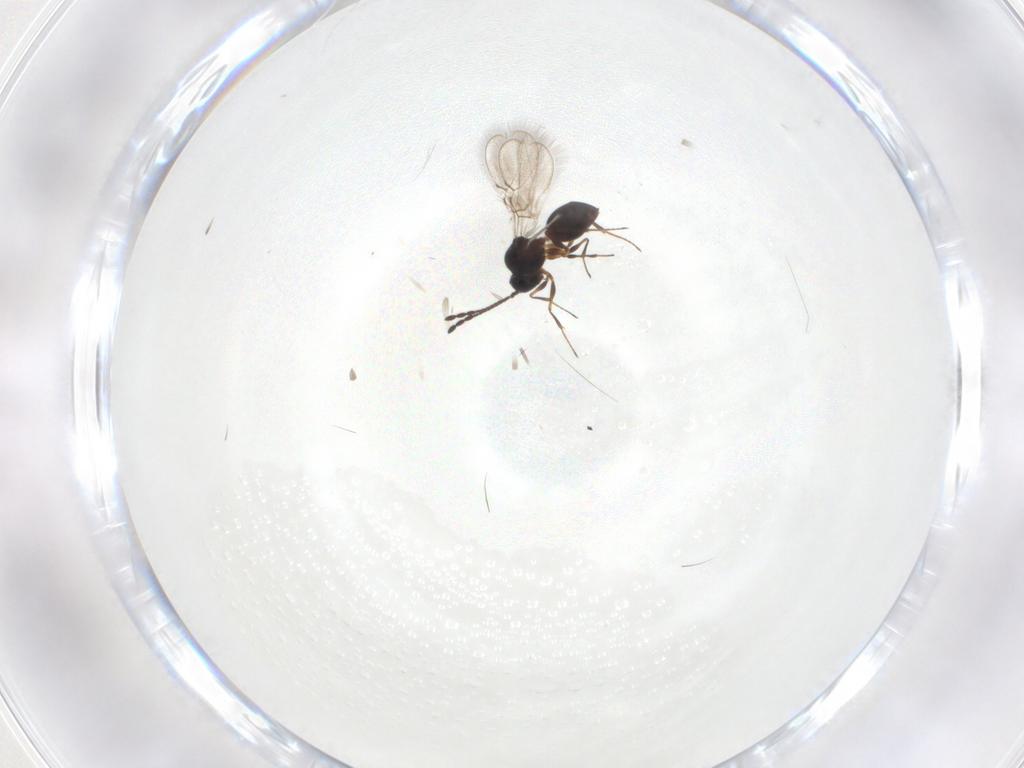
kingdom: Animalia
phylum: Arthropoda
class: Insecta
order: Hymenoptera
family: Figitidae
